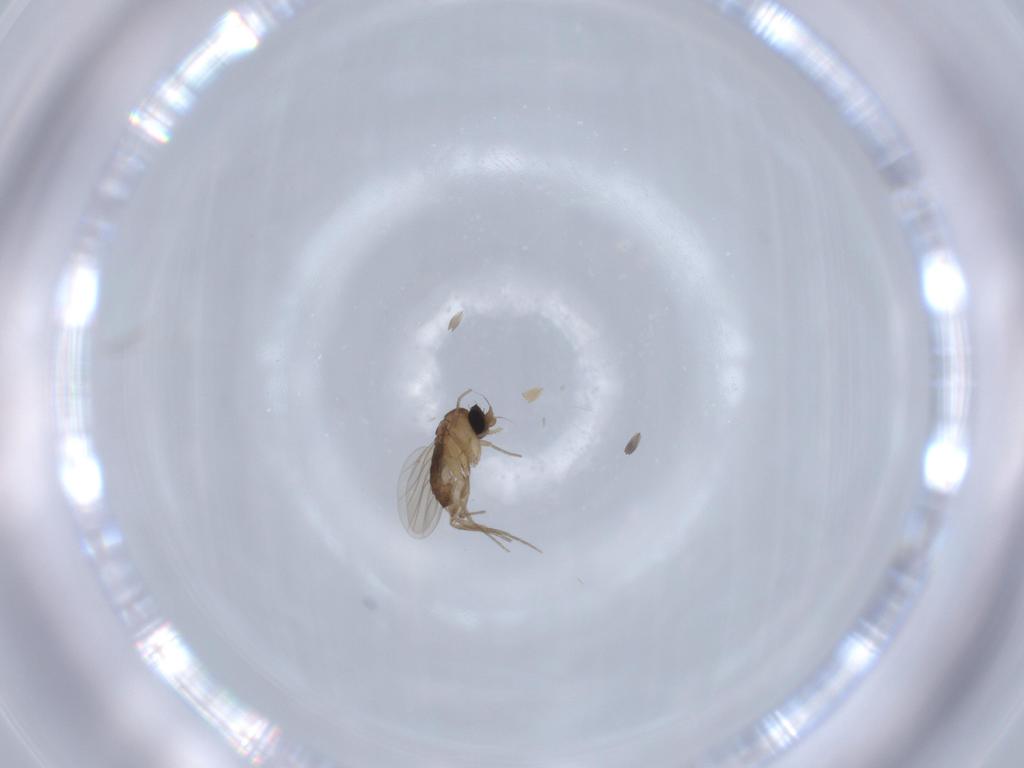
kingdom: Animalia
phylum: Arthropoda
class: Insecta
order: Diptera
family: Phoridae
